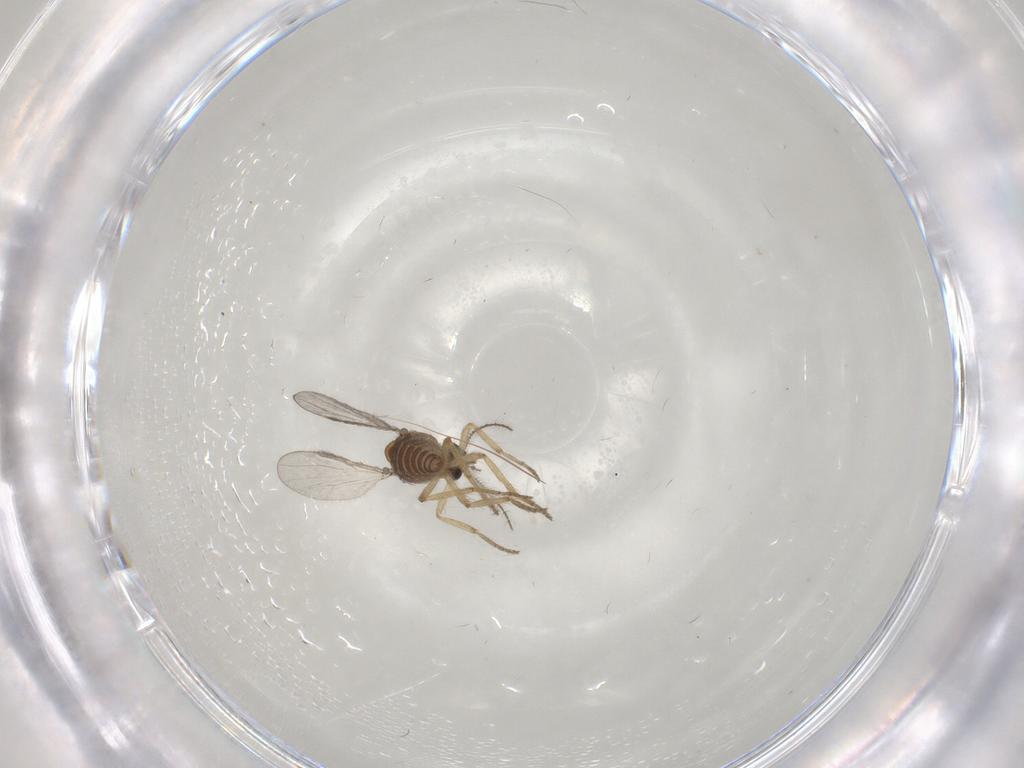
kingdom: Animalia
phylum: Arthropoda
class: Insecta
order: Diptera
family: Ceratopogonidae
